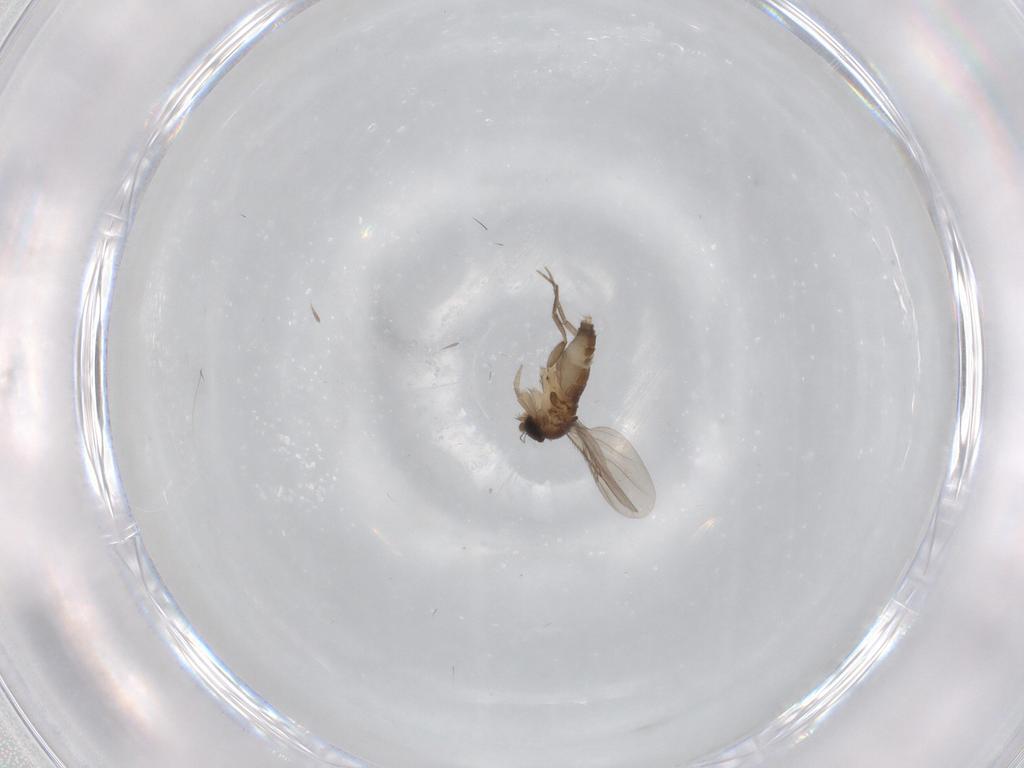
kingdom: Animalia
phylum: Arthropoda
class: Insecta
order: Diptera
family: Phoridae
